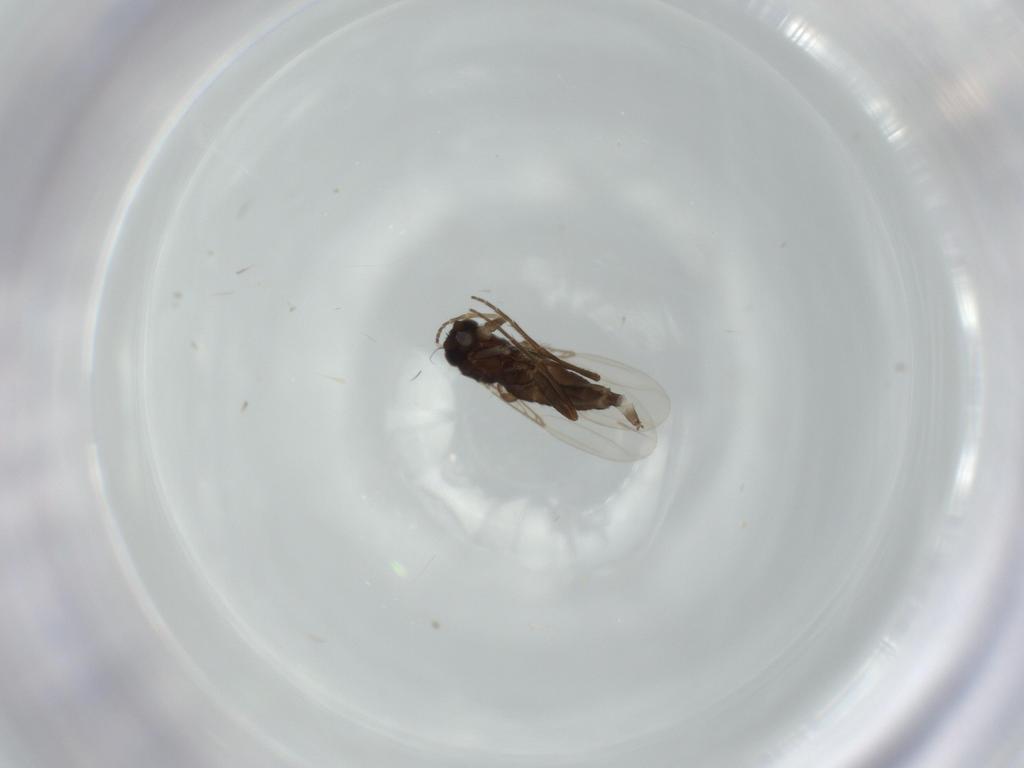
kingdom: Animalia
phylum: Arthropoda
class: Insecta
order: Diptera
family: Phoridae
